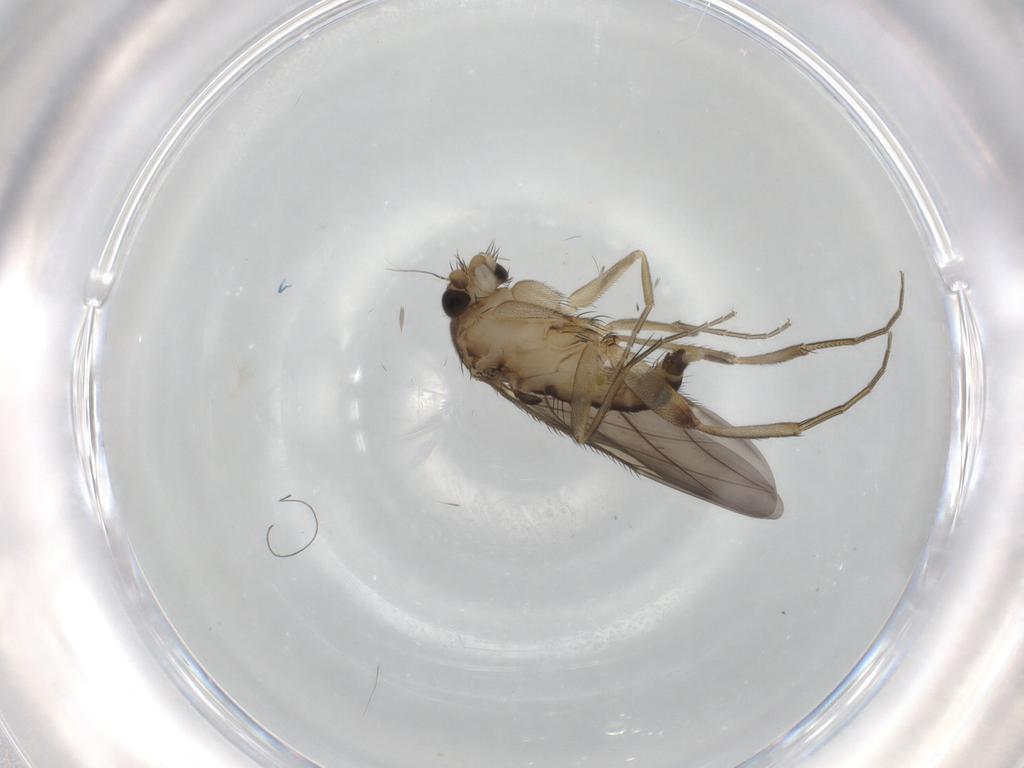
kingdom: Animalia
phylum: Arthropoda
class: Insecta
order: Diptera
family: Phoridae
